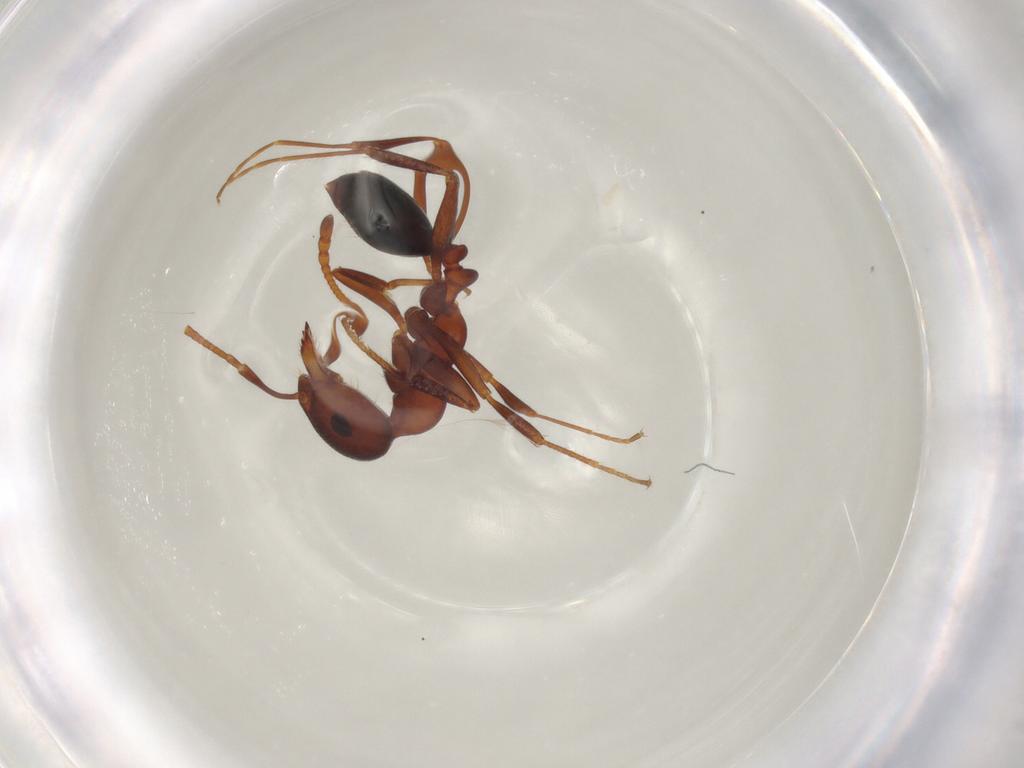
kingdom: Animalia
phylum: Arthropoda
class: Insecta
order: Hymenoptera
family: Formicidae
